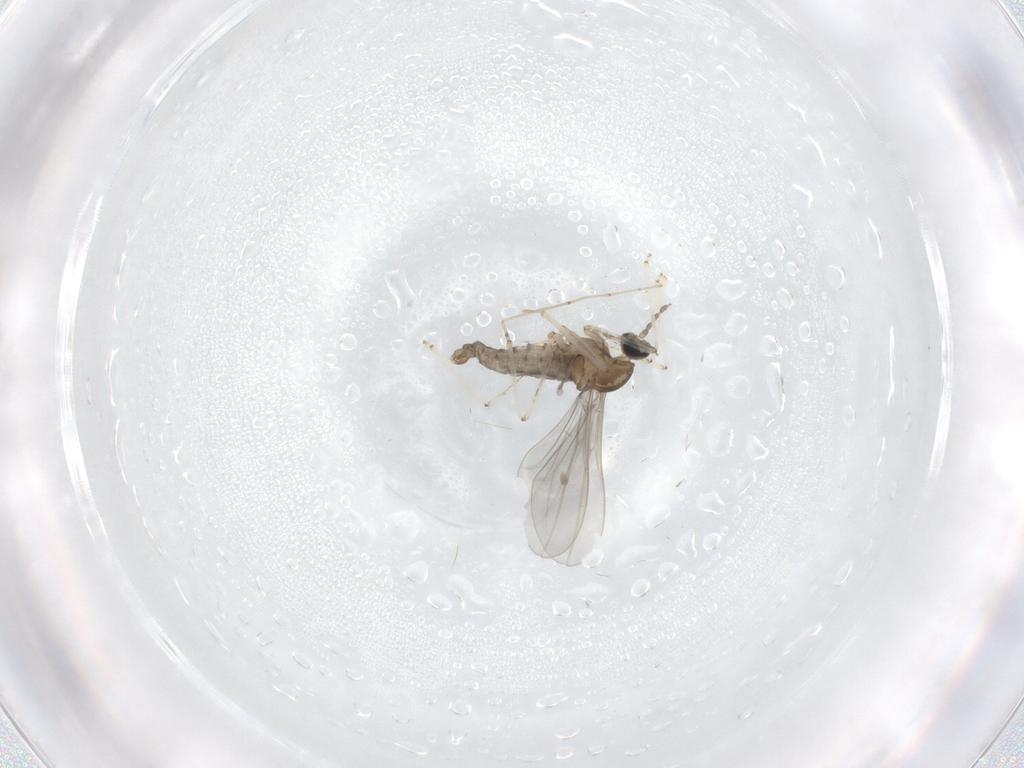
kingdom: Animalia
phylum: Arthropoda
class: Insecta
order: Diptera
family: Cecidomyiidae
